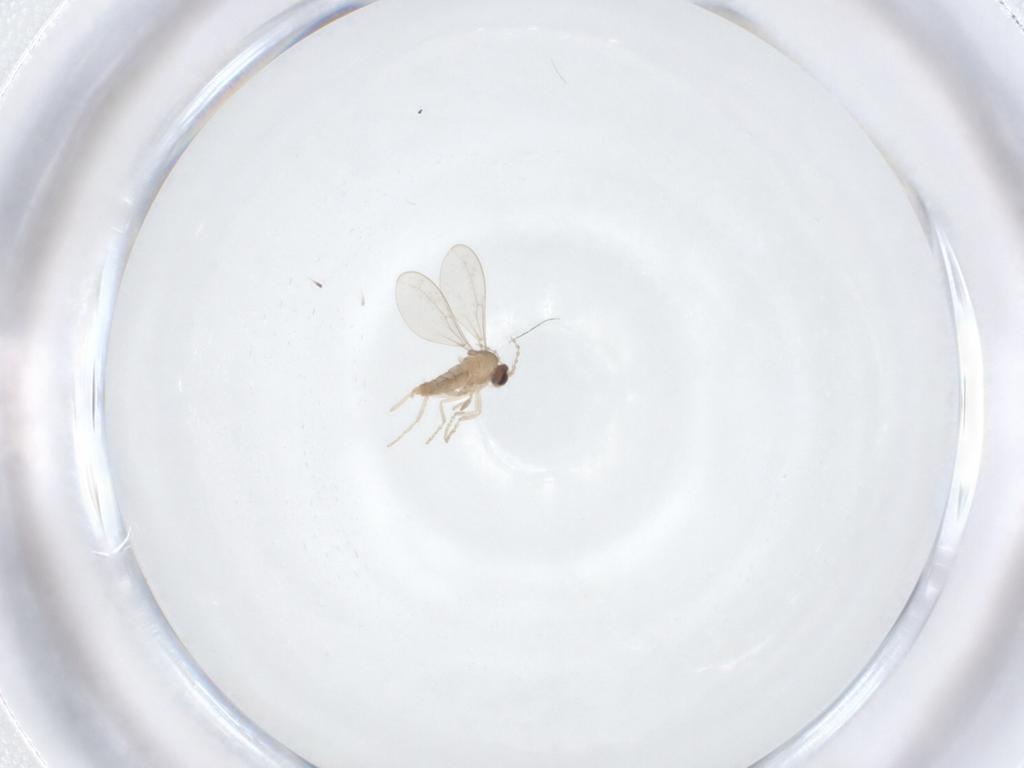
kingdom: Animalia
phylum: Arthropoda
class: Insecta
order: Diptera
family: Cecidomyiidae
